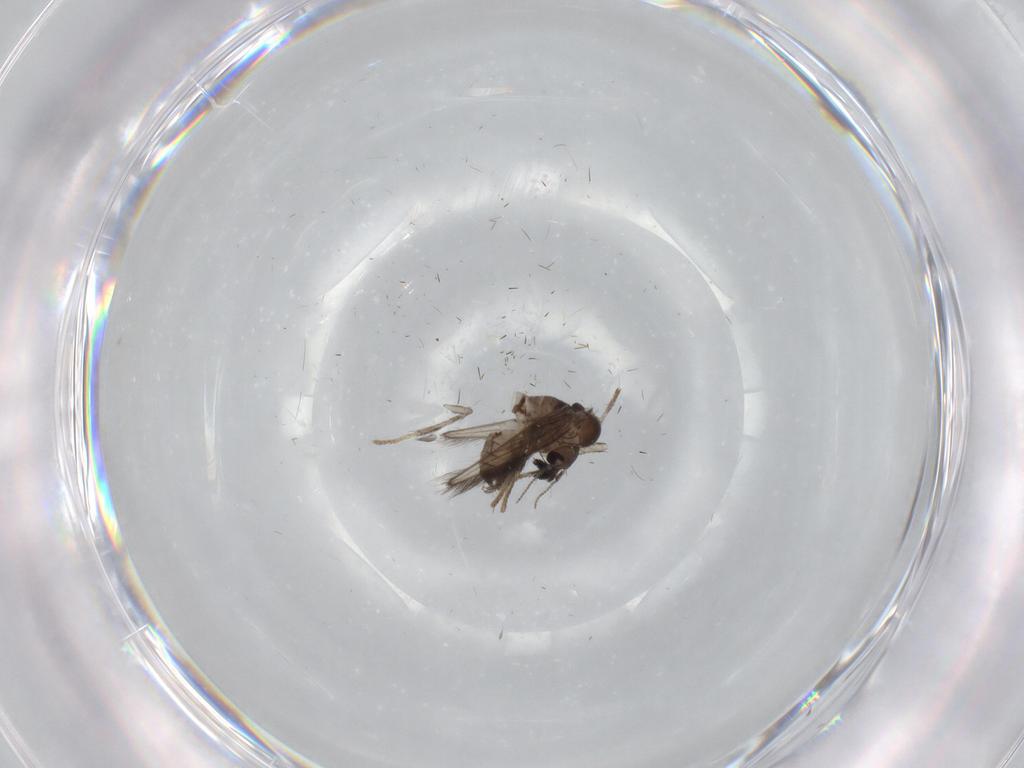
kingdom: Animalia
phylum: Arthropoda
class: Insecta
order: Diptera
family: Psychodidae
